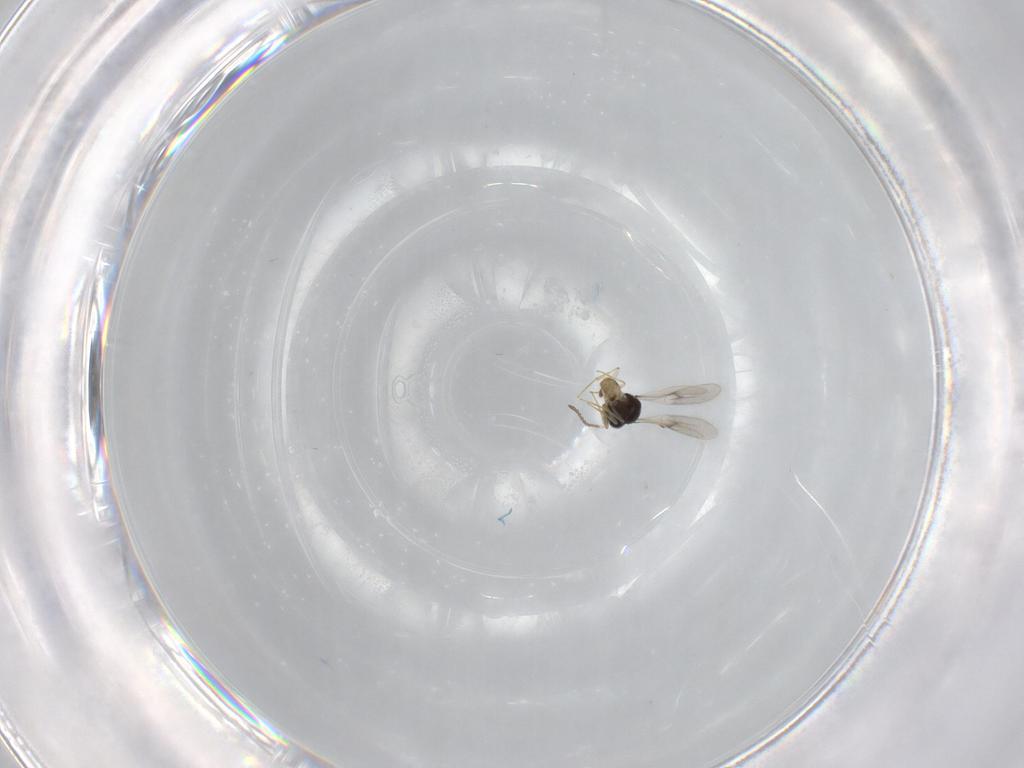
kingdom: Animalia
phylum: Arthropoda
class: Insecta
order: Hymenoptera
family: Scelionidae
